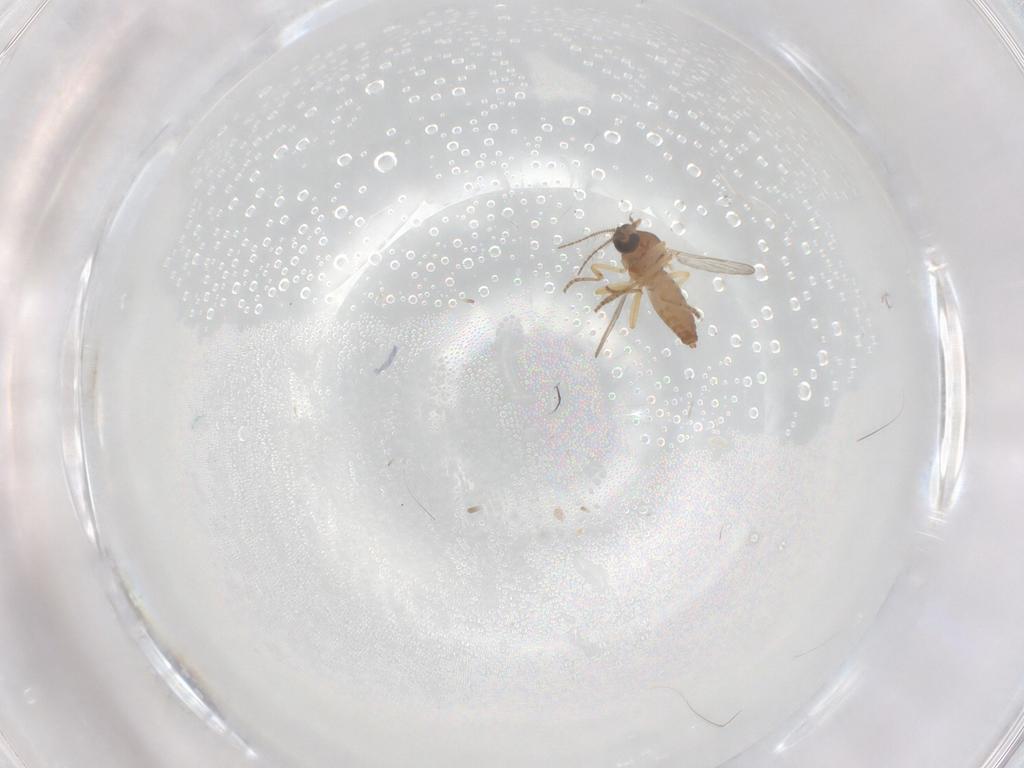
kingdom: Animalia
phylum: Arthropoda
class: Insecta
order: Diptera
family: Ceratopogonidae
